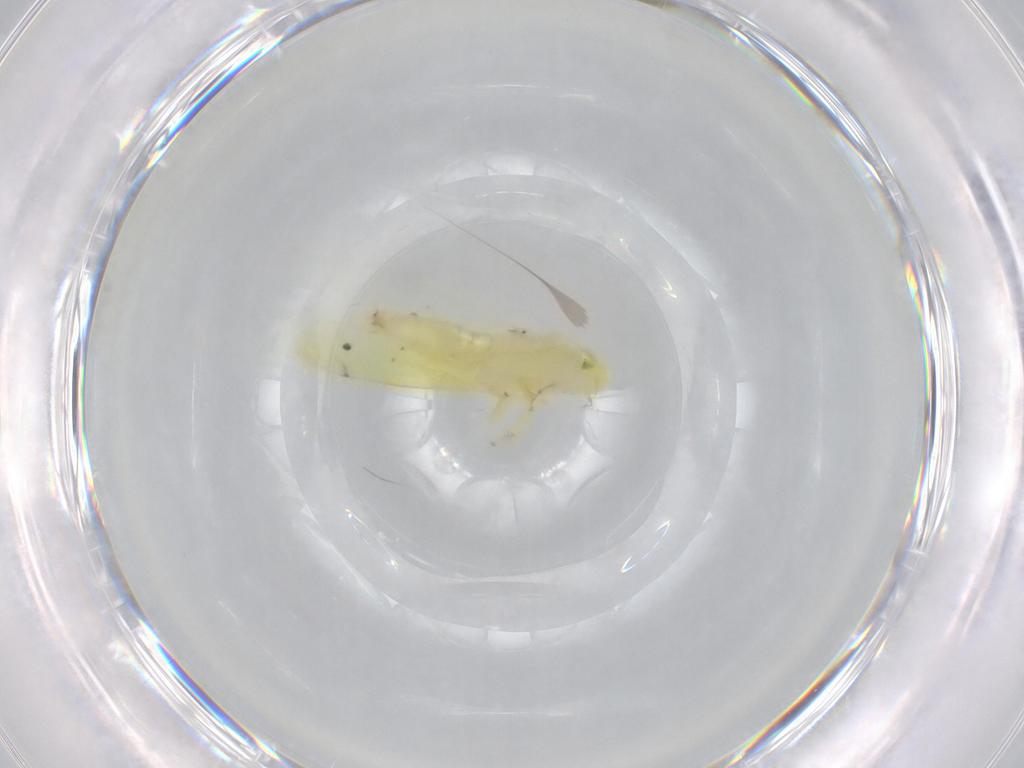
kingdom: Animalia
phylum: Arthropoda
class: Insecta
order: Hemiptera
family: Cicadellidae
